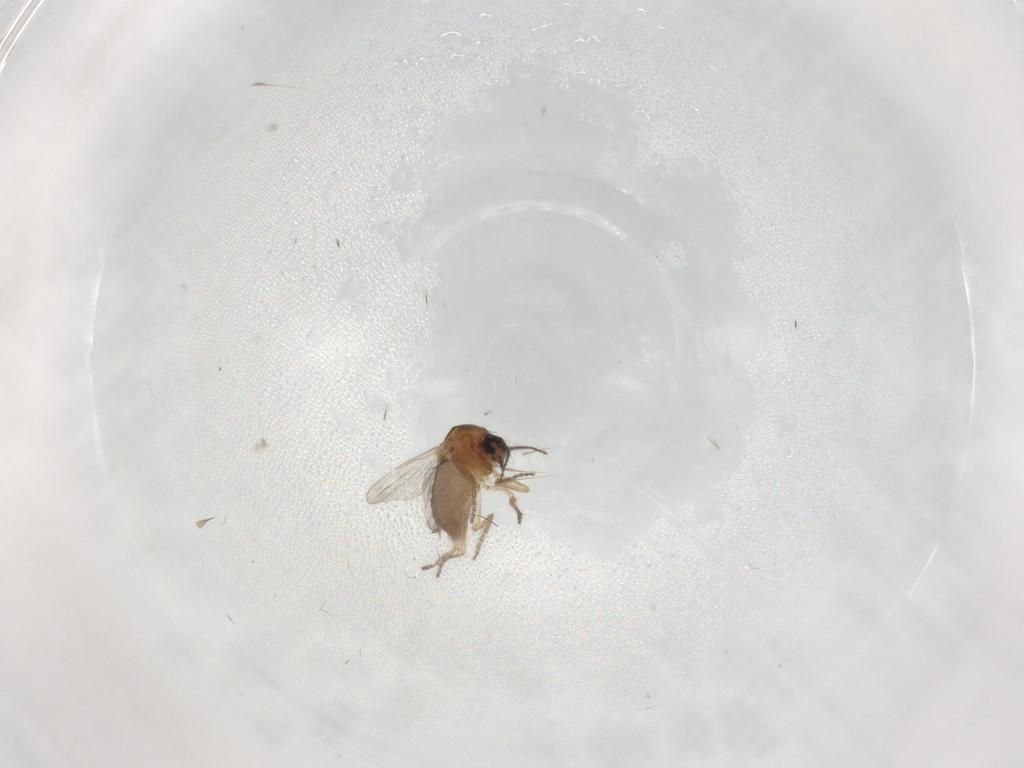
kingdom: Animalia
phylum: Arthropoda
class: Insecta
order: Diptera
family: Ceratopogonidae
